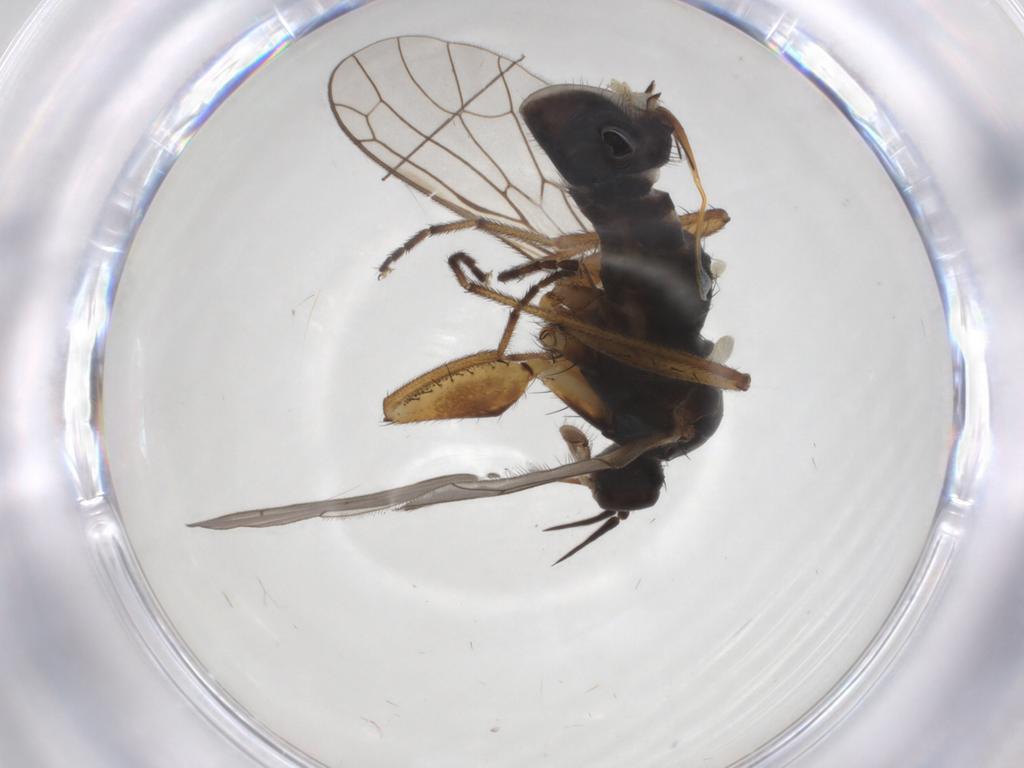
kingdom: Animalia
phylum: Arthropoda
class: Insecta
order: Diptera
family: Chironomidae
